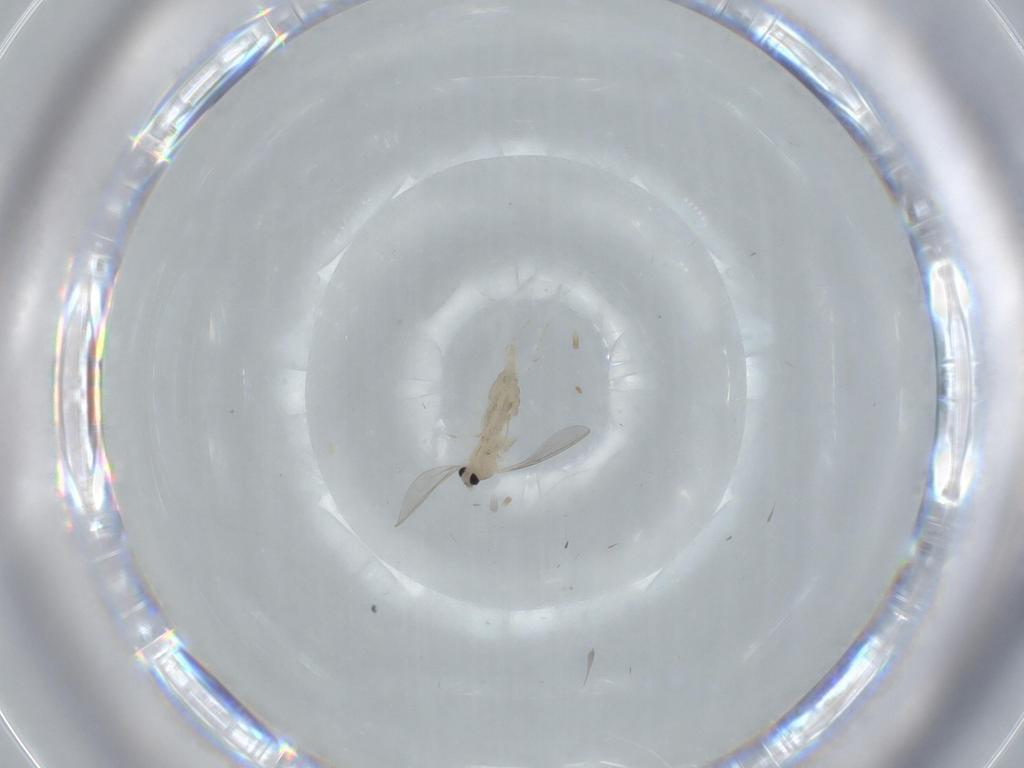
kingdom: Animalia
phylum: Arthropoda
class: Insecta
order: Diptera
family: Cecidomyiidae
